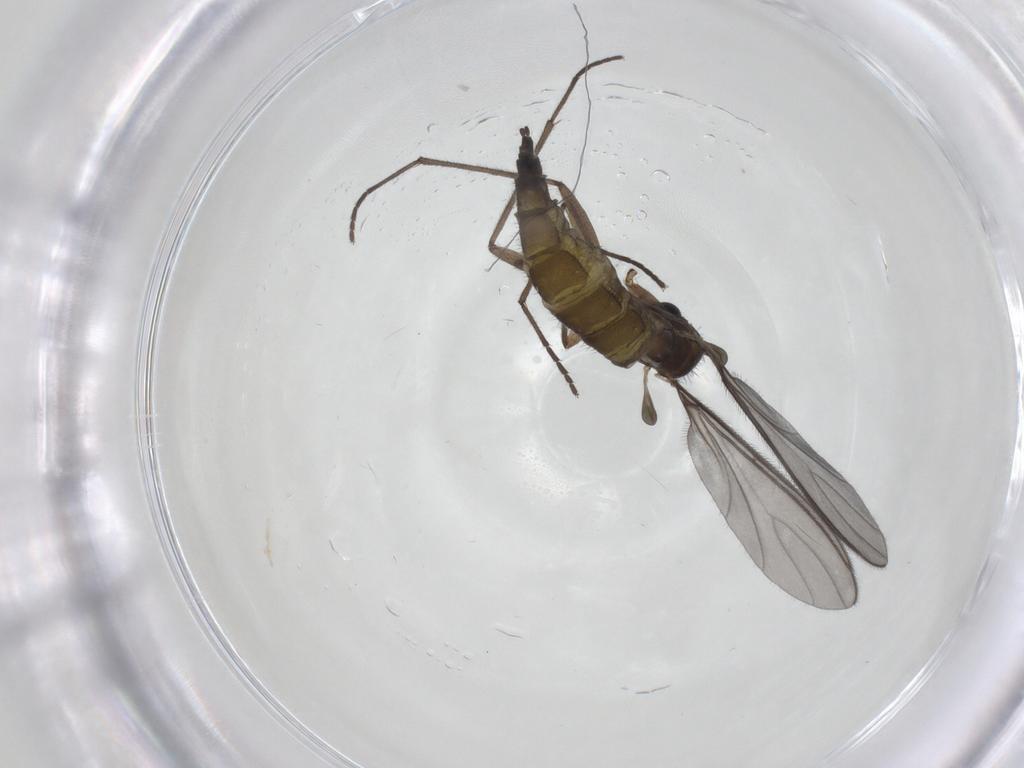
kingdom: Animalia
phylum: Arthropoda
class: Insecta
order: Diptera
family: Sciaridae
